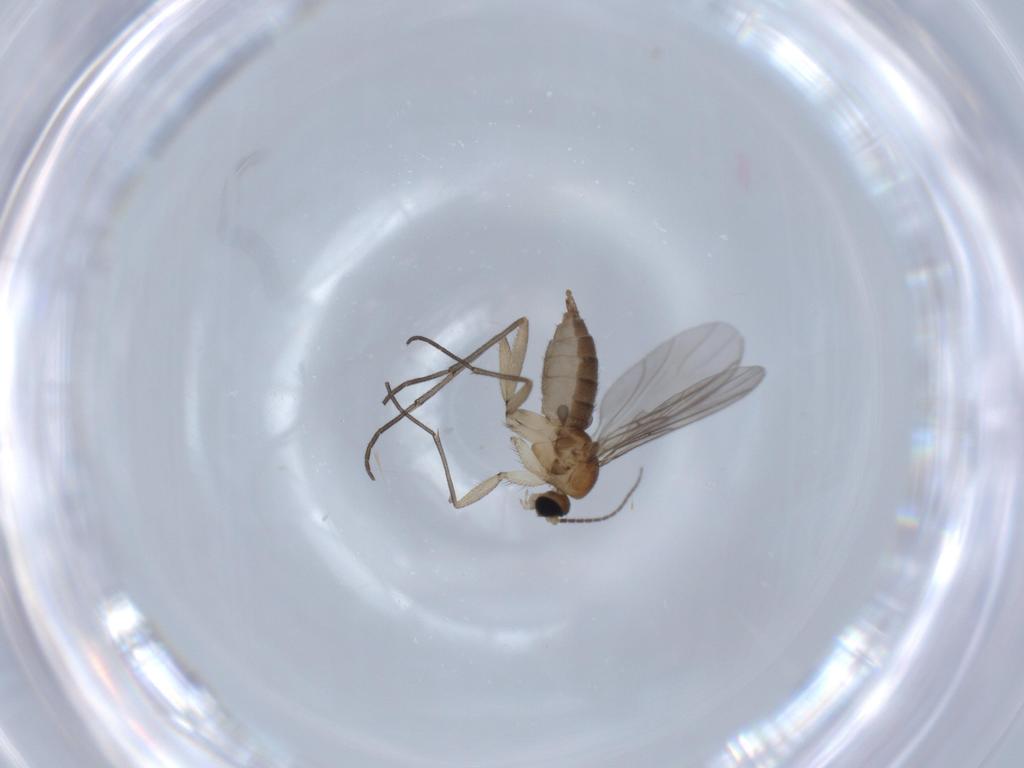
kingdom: Animalia
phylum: Arthropoda
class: Insecta
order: Diptera
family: Sciaridae
